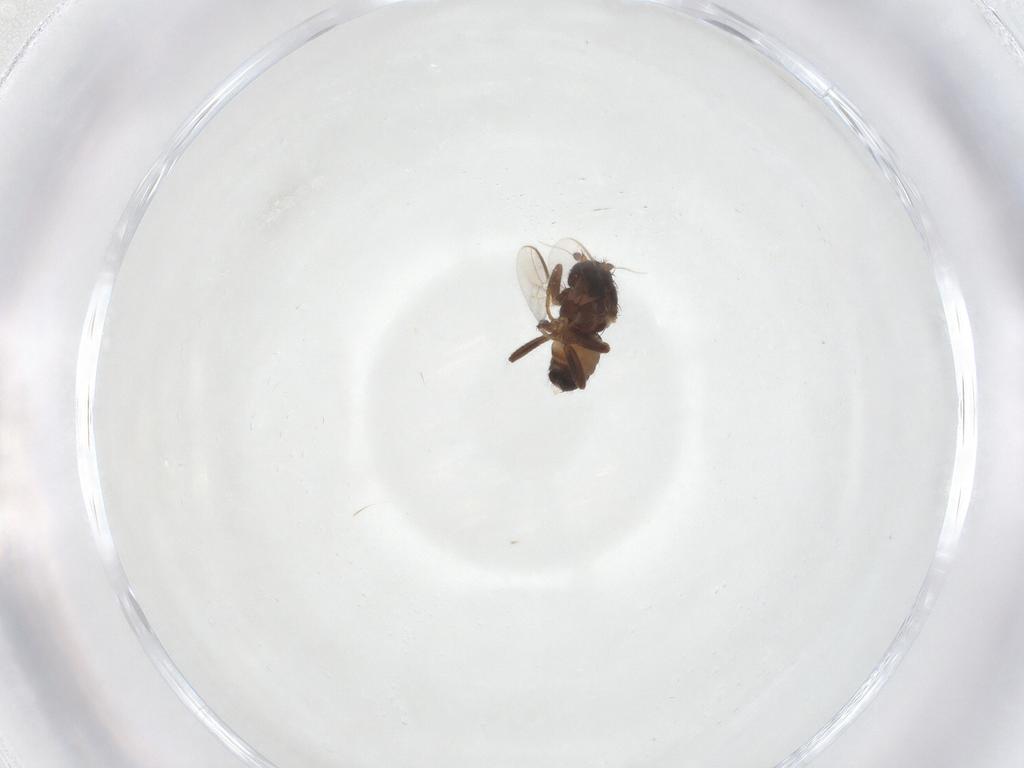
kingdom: Animalia
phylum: Arthropoda
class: Insecta
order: Diptera
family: Sphaeroceridae
